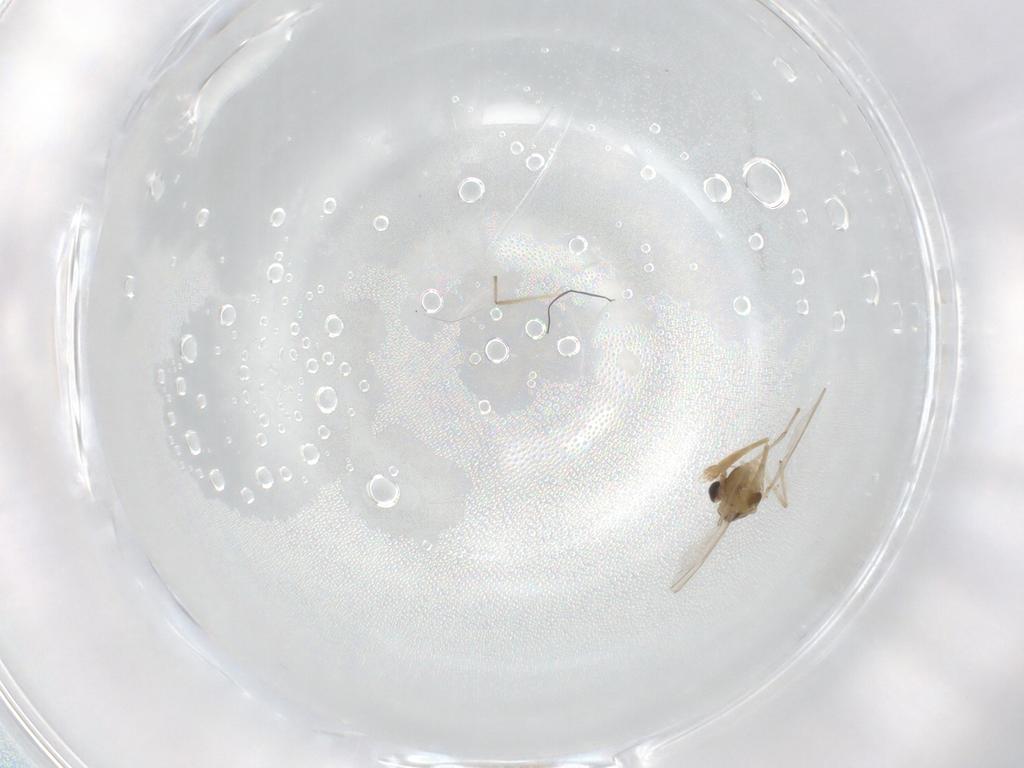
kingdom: Animalia
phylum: Arthropoda
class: Insecta
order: Diptera
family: Chironomidae
